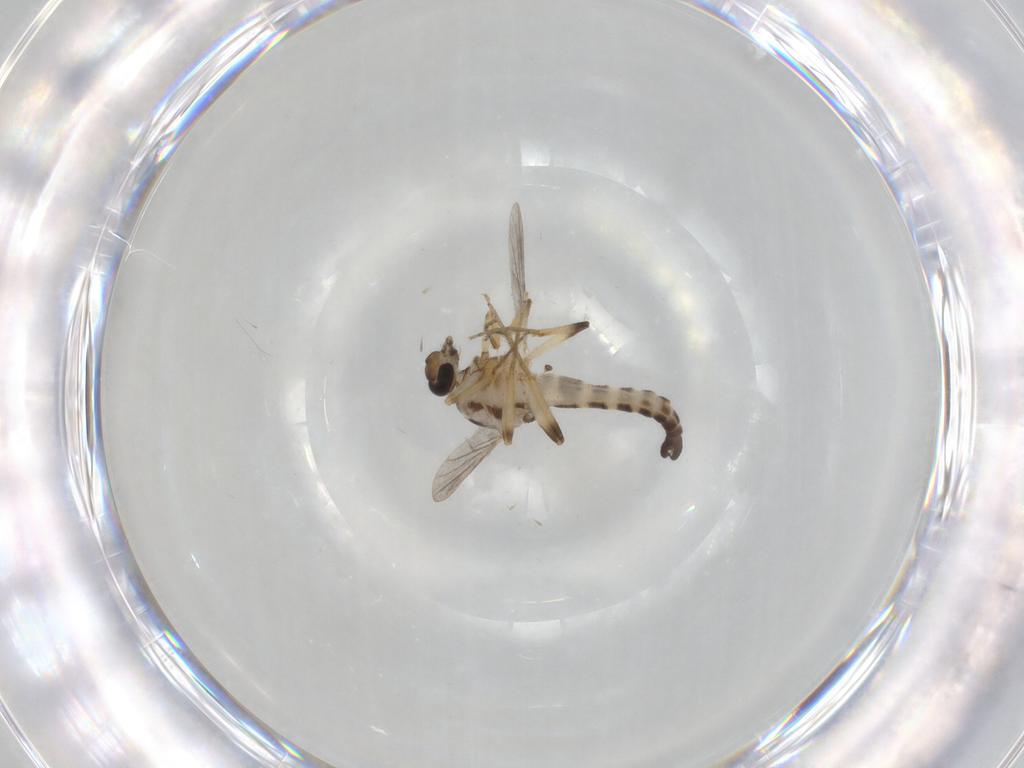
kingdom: Animalia
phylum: Arthropoda
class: Insecta
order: Diptera
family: Ceratopogonidae
